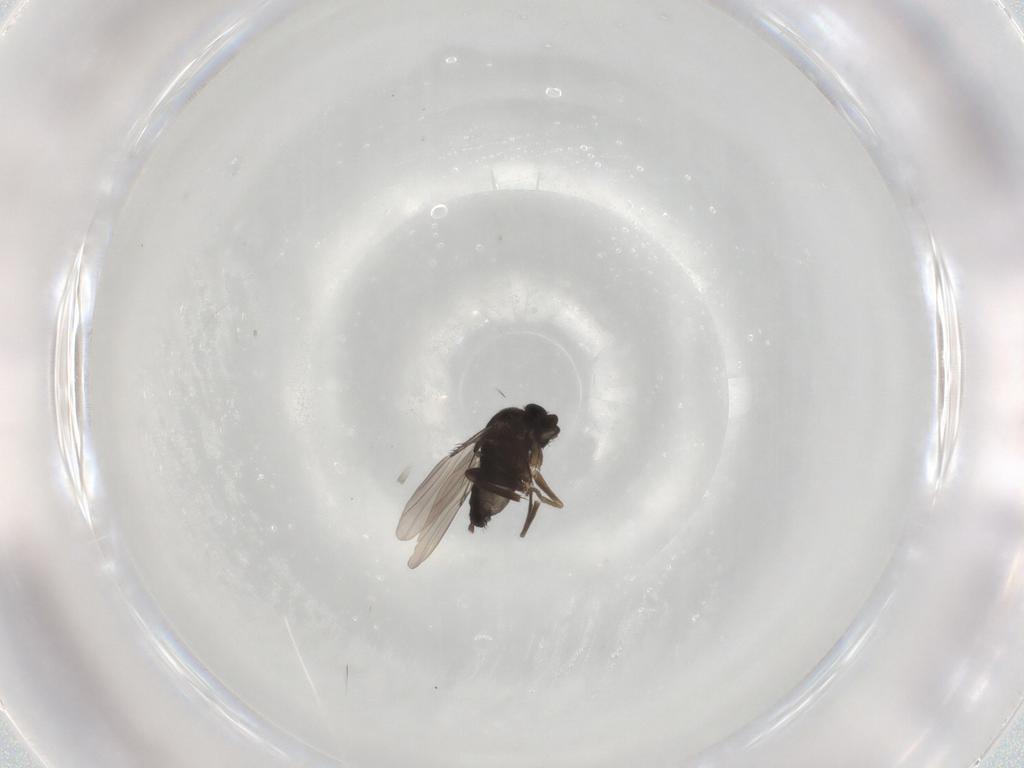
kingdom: Animalia
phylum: Arthropoda
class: Insecta
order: Diptera
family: Phoridae
